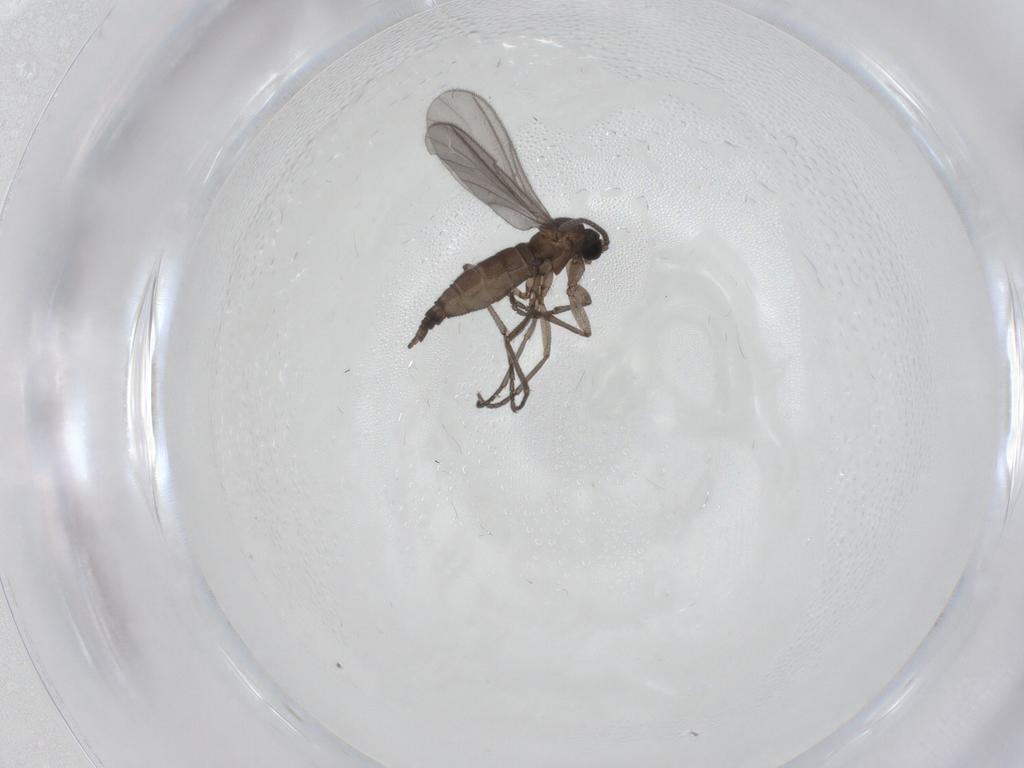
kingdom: Animalia
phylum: Arthropoda
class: Insecta
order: Diptera
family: Sciaridae
